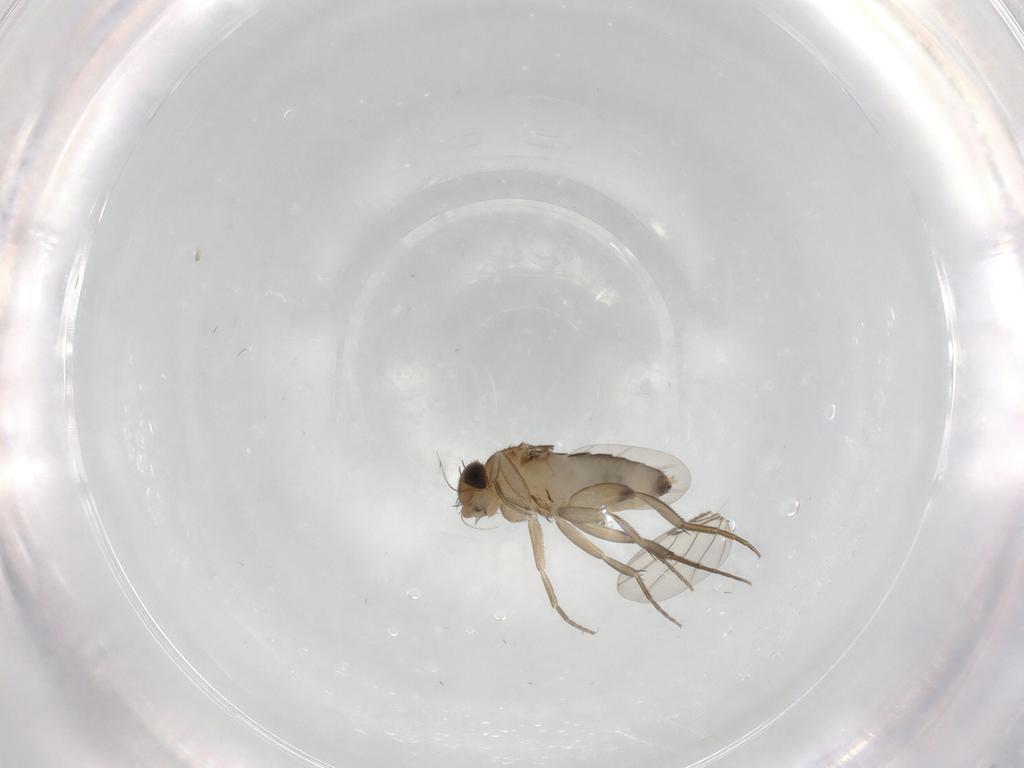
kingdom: Animalia
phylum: Arthropoda
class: Insecta
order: Diptera
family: Phoridae
